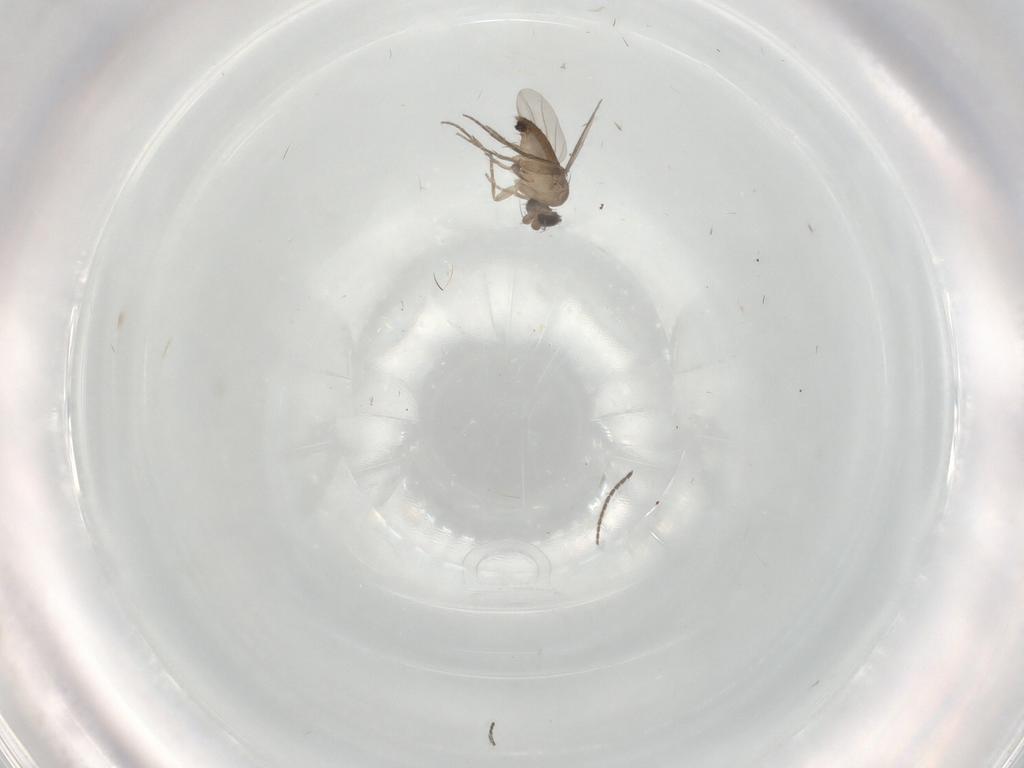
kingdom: Animalia
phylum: Arthropoda
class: Insecta
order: Diptera
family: Phoridae
